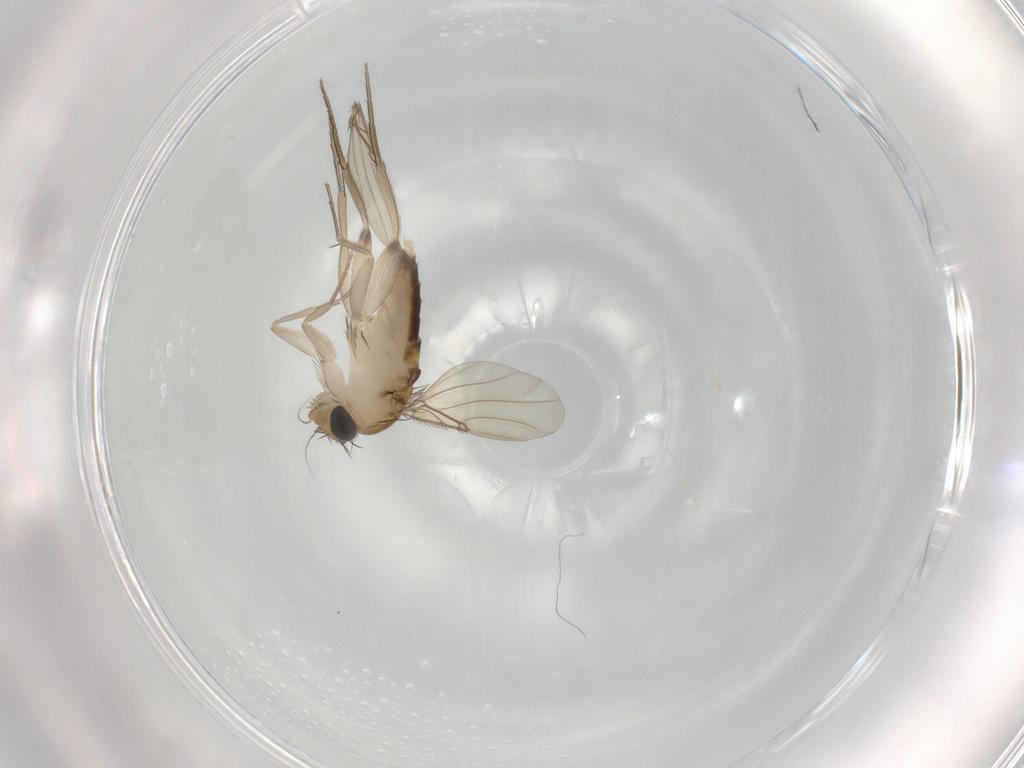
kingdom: Animalia
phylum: Arthropoda
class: Insecta
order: Diptera
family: Phoridae
